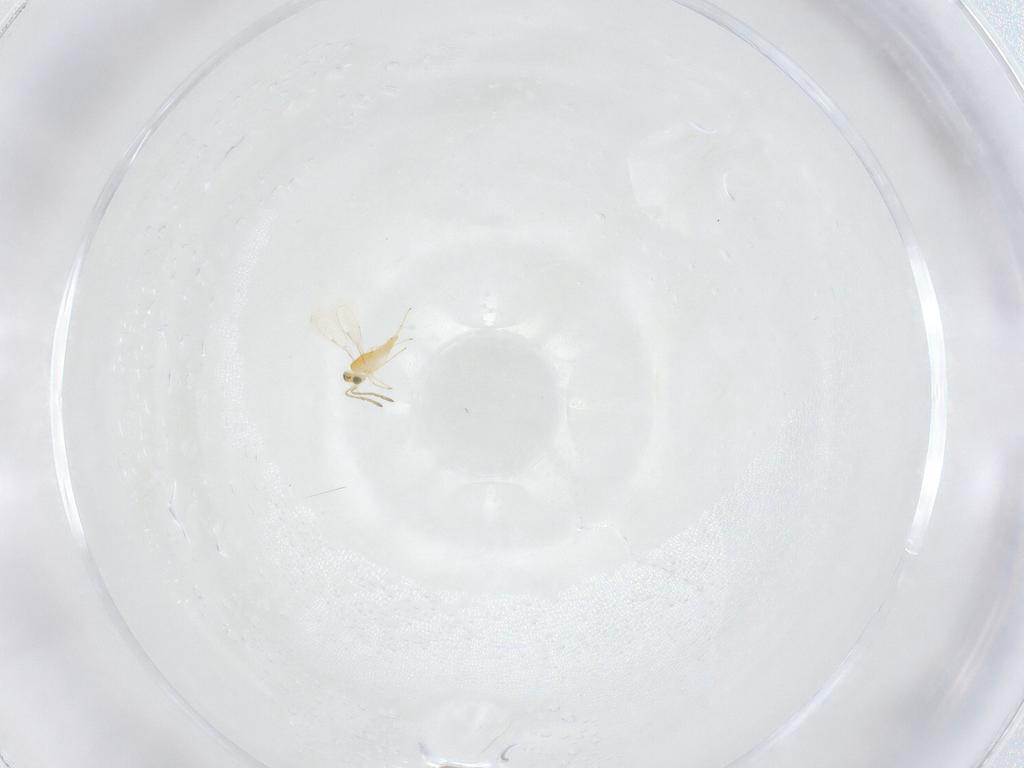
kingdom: Animalia
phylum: Arthropoda
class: Insecta
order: Hymenoptera
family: Aphelinidae
